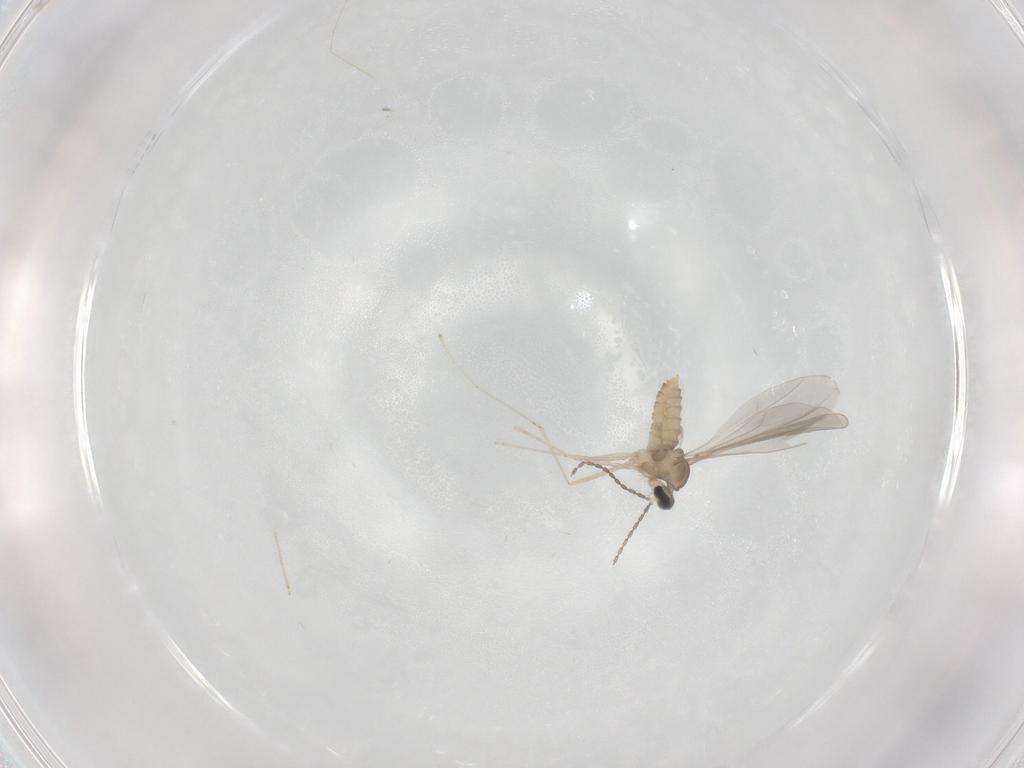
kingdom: Animalia
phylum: Arthropoda
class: Insecta
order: Diptera
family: Cecidomyiidae
